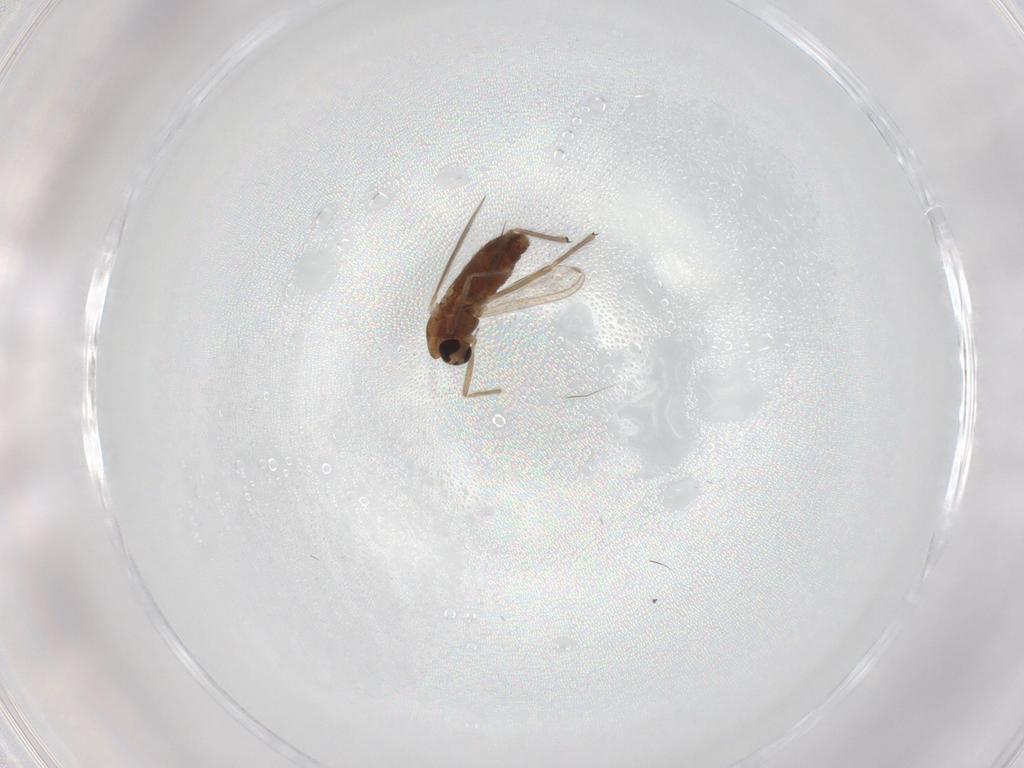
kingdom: Animalia
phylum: Arthropoda
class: Insecta
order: Diptera
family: Chironomidae
